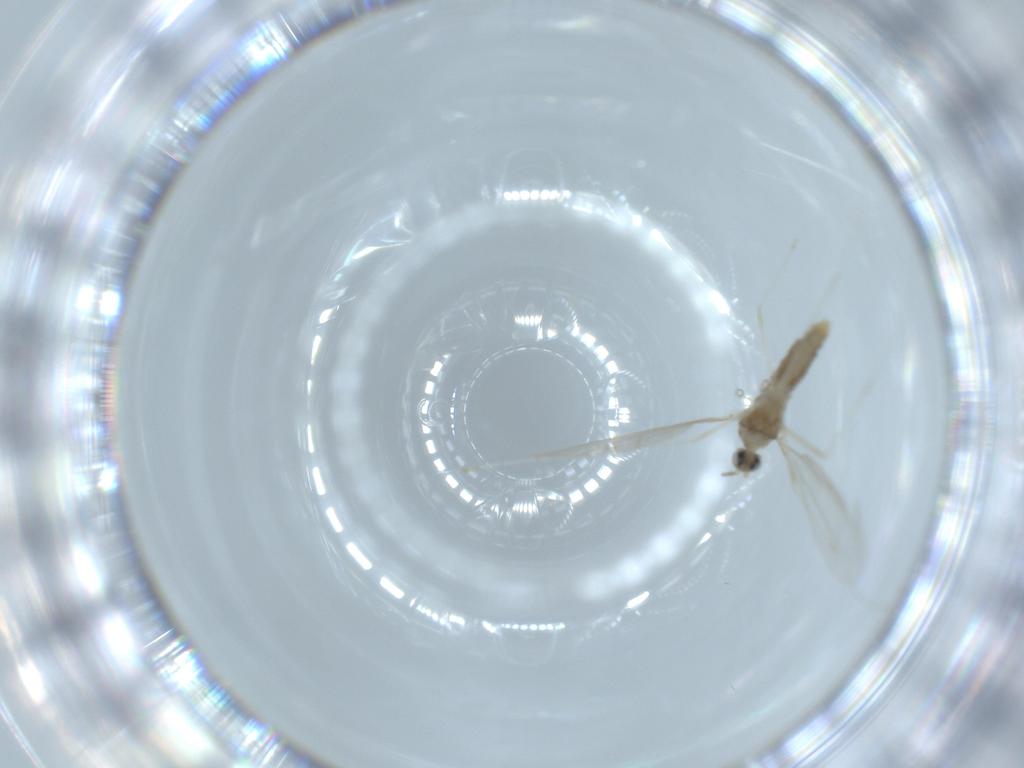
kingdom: Animalia
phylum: Arthropoda
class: Insecta
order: Diptera
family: Cecidomyiidae
